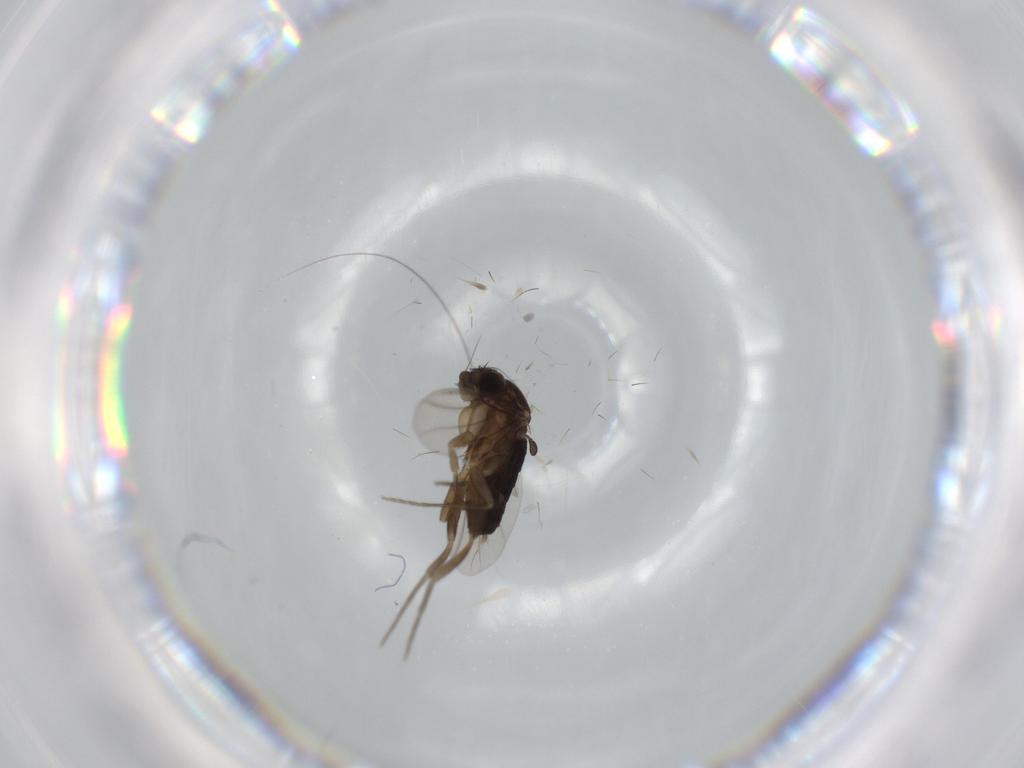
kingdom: Animalia
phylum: Arthropoda
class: Insecta
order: Diptera
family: Phoridae
